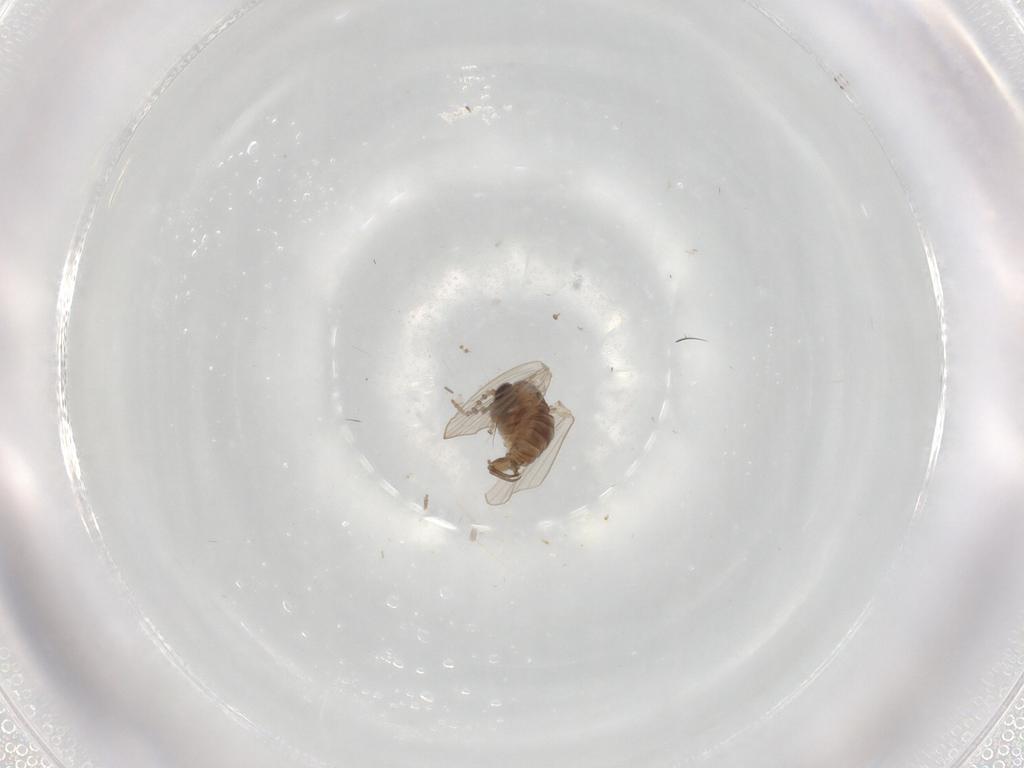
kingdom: Animalia
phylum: Arthropoda
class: Insecta
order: Diptera
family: Psychodidae
